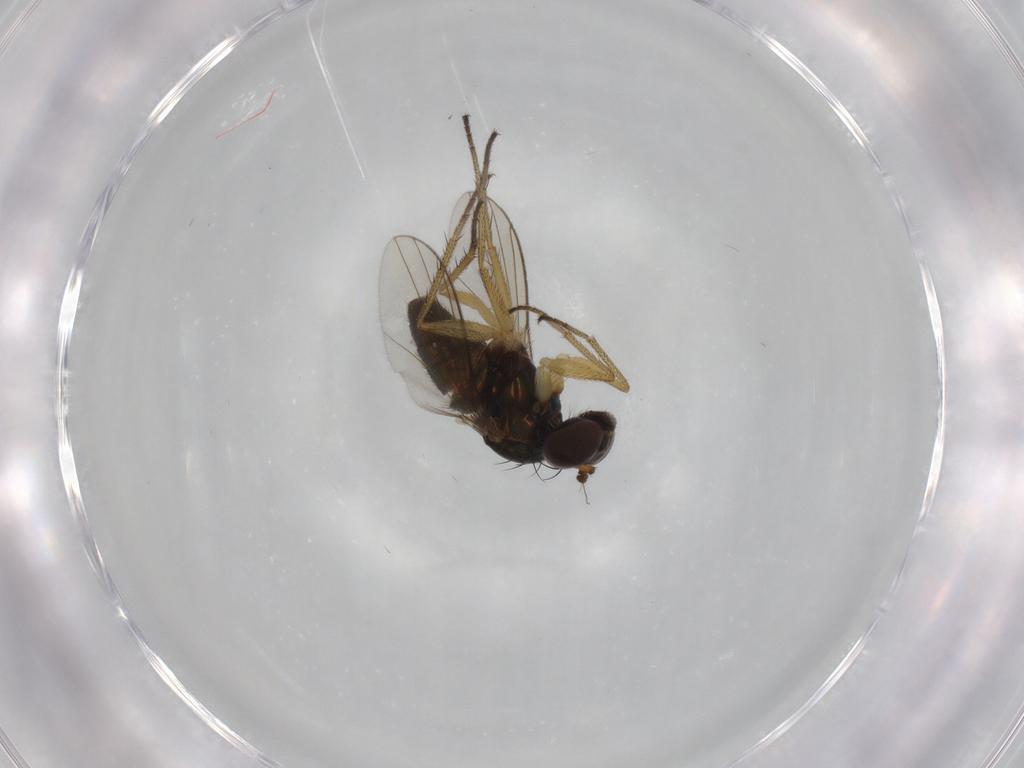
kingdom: Animalia
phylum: Arthropoda
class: Insecta
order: Diptera
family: Dolichopodidae
